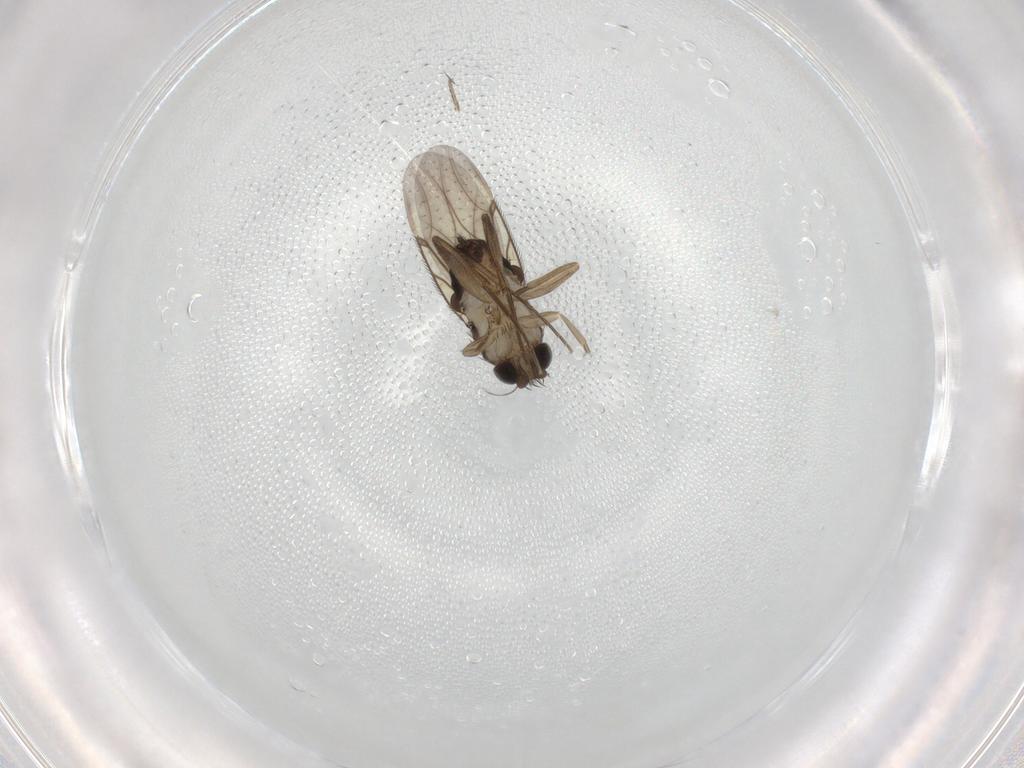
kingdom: Animalia
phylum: Arthropoda
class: Insecta
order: Diptera
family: Phoridae
